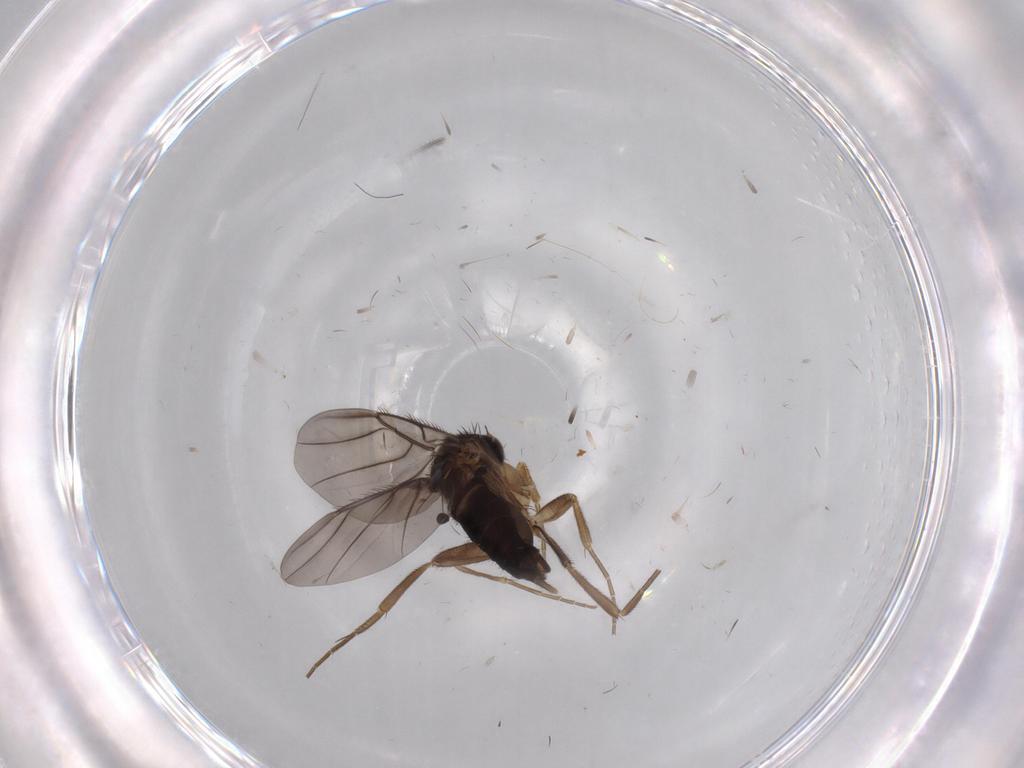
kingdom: Animalia
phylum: Arthropoda
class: Insecta
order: Diptera
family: Phoridae
